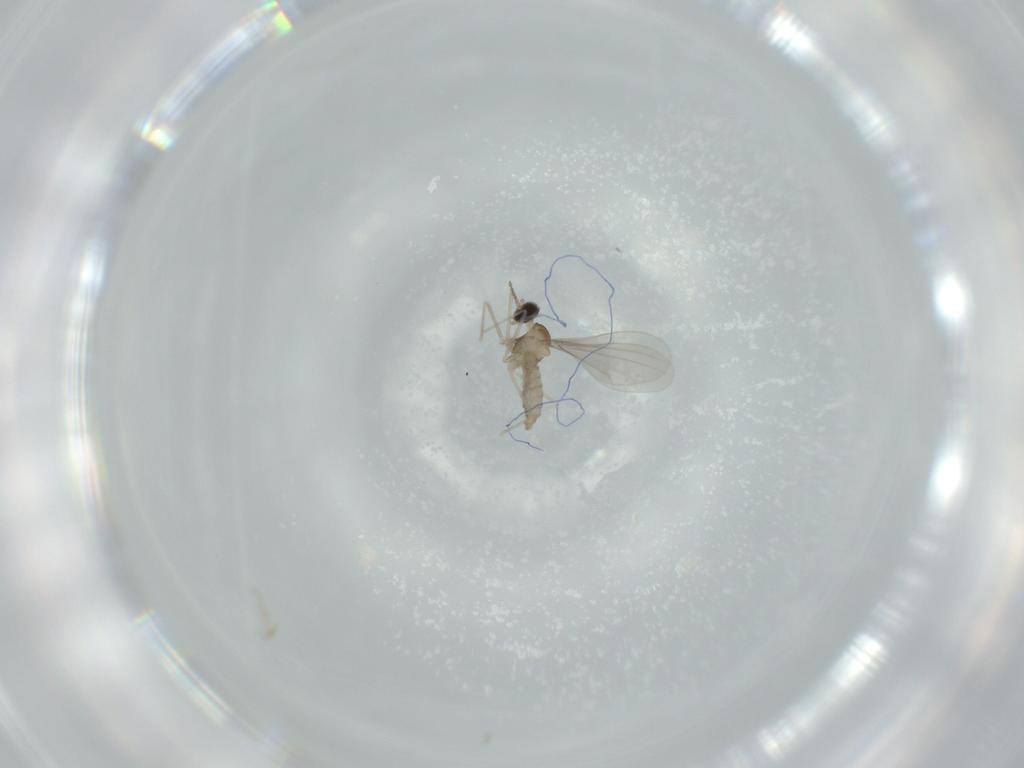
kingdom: Animalia
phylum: Arthropoda
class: Insecta
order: Diptera
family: Cecidomyiidae
